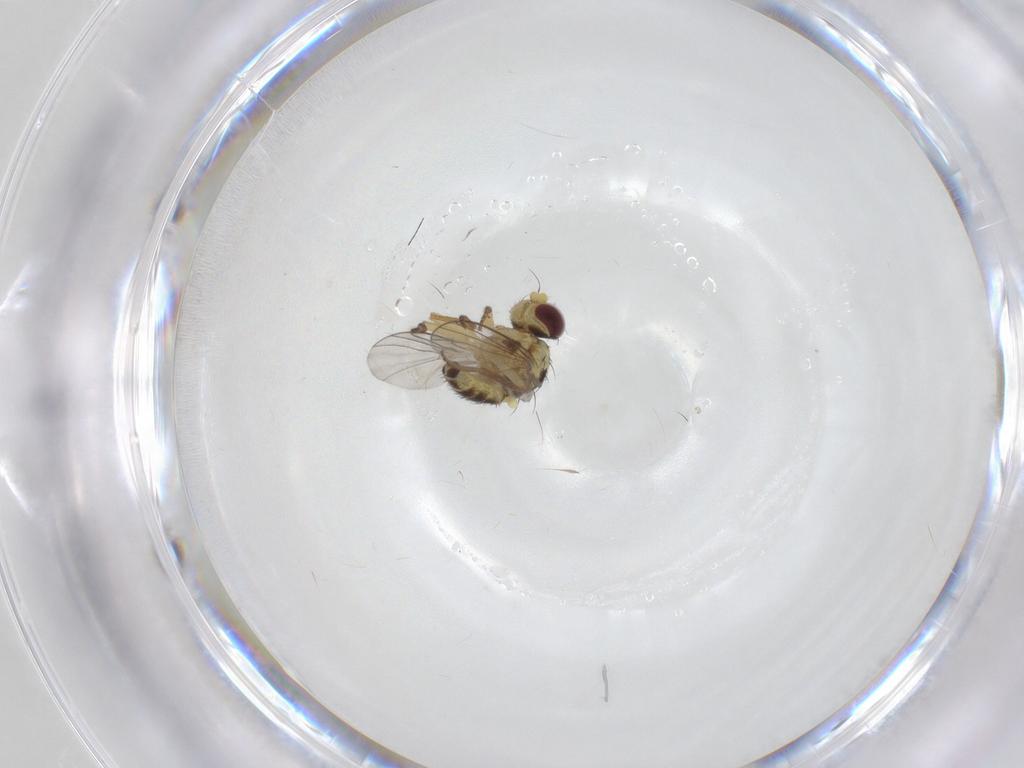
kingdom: Animalia
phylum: Arthropoda
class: Insecta
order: Diptera
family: Agromyzidae
